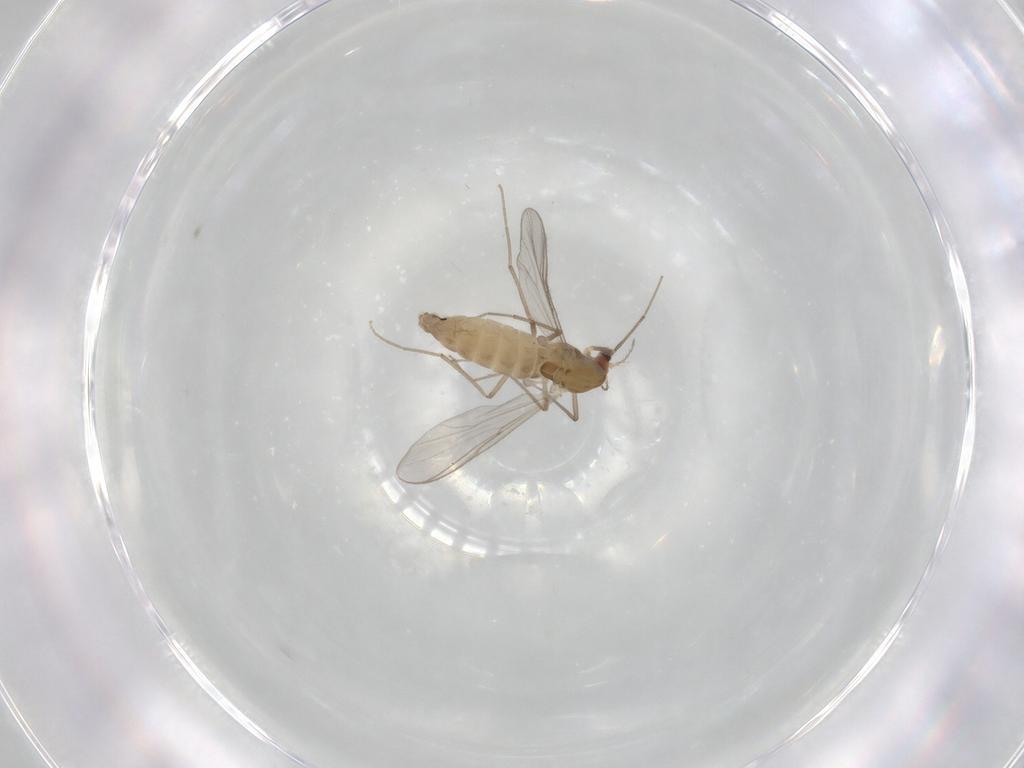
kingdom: Animalia
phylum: Arthropoda
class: Insecta
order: Diptera
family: Chironomidae
